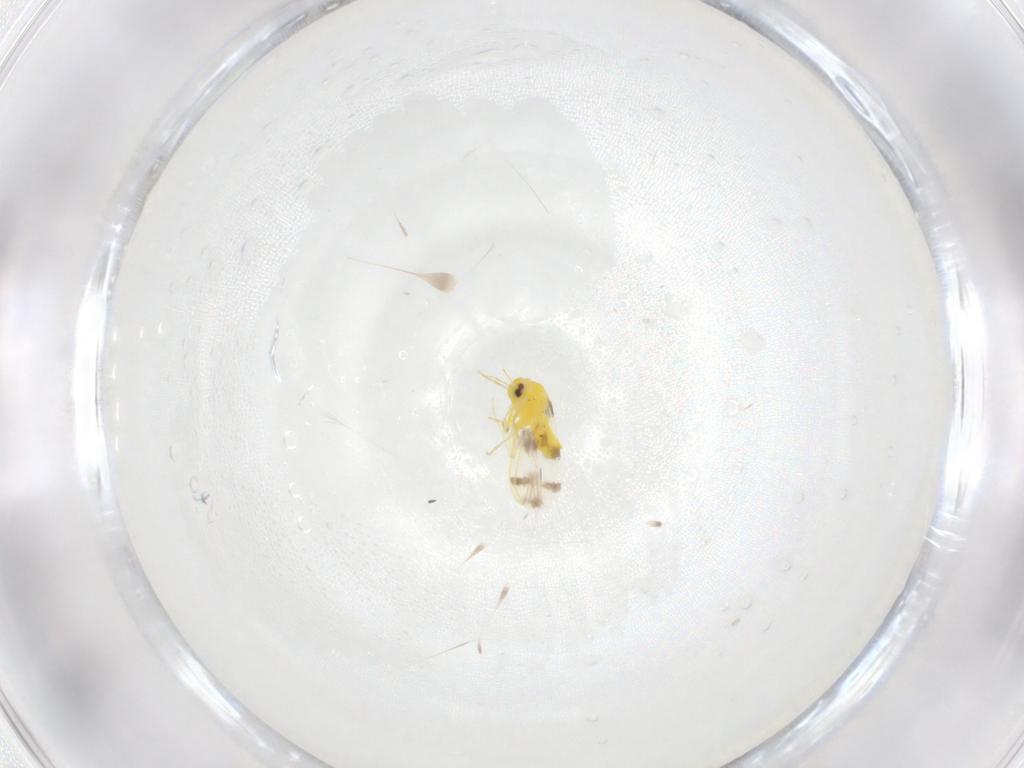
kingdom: Animalia
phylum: Arthropoda
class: Insecta
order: Hemiptera
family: Aleyrodidae
